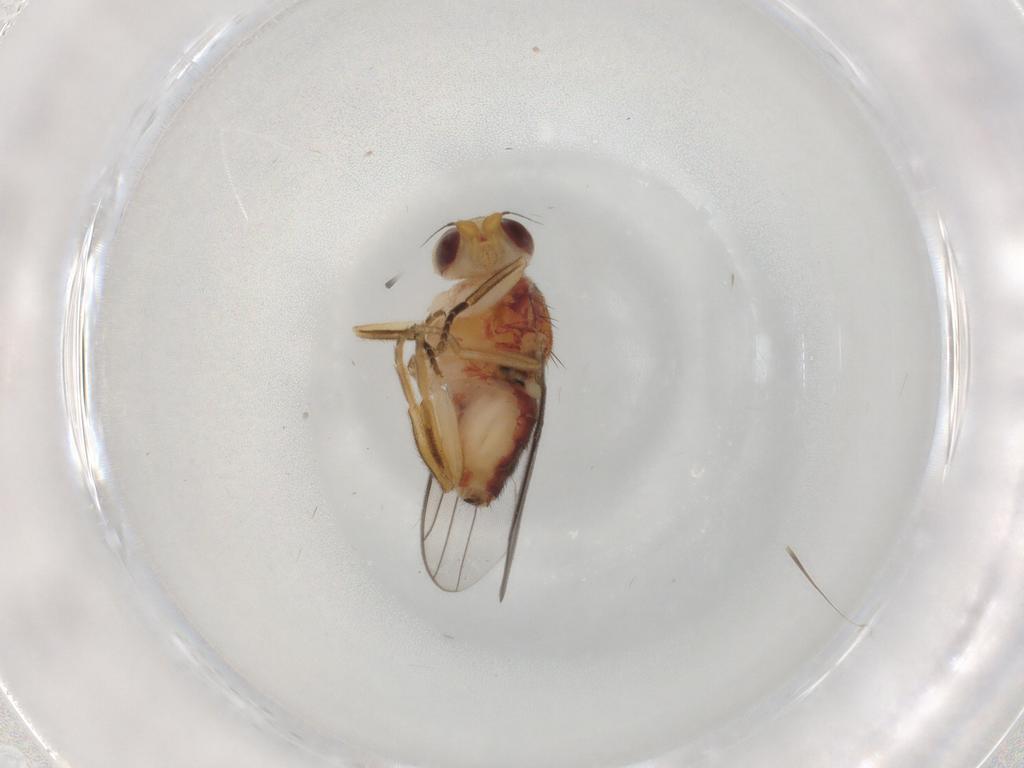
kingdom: Animalia
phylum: Arthropoda
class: Insecta
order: Diptera
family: Chloropidae
